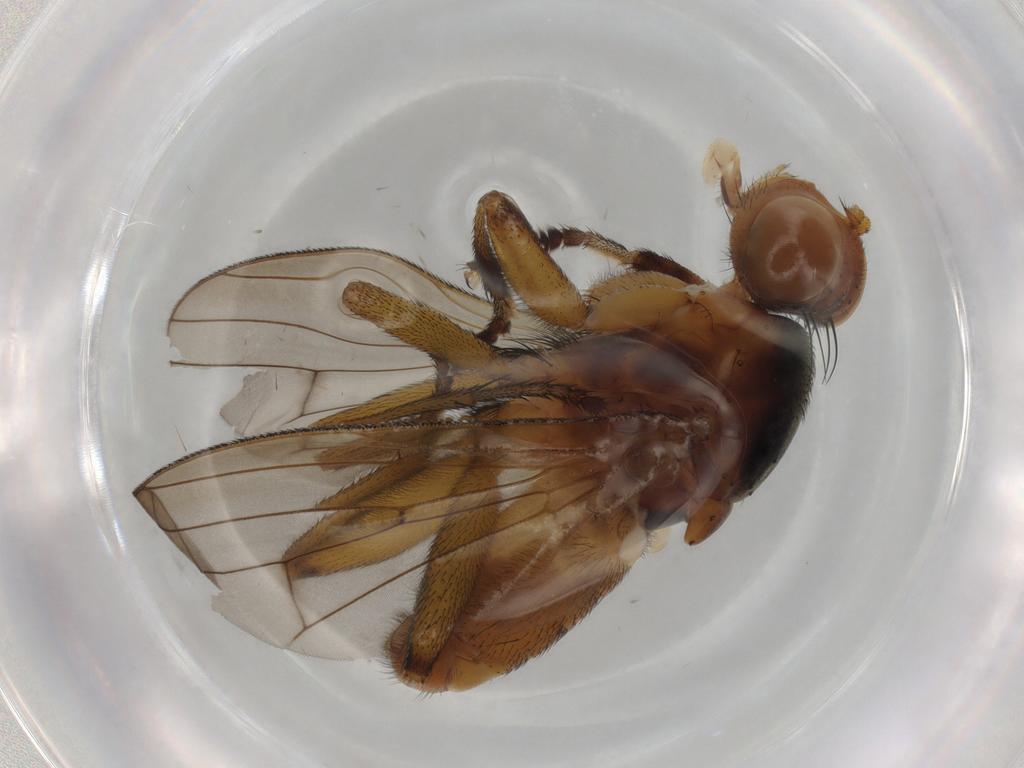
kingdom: Animalia
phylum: Arthropoda
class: Insecta
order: Diptera
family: Sciomyzidae
